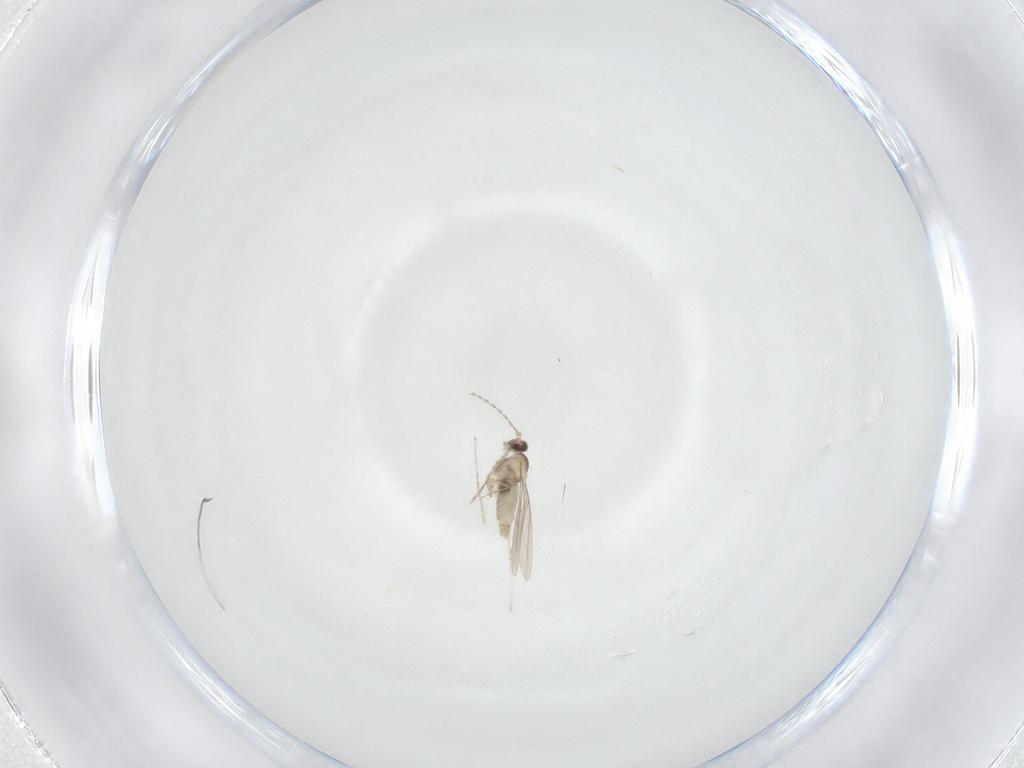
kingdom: Animalia
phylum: Arthropoda
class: Insecta
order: Diptera
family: Cecidomyiidae
